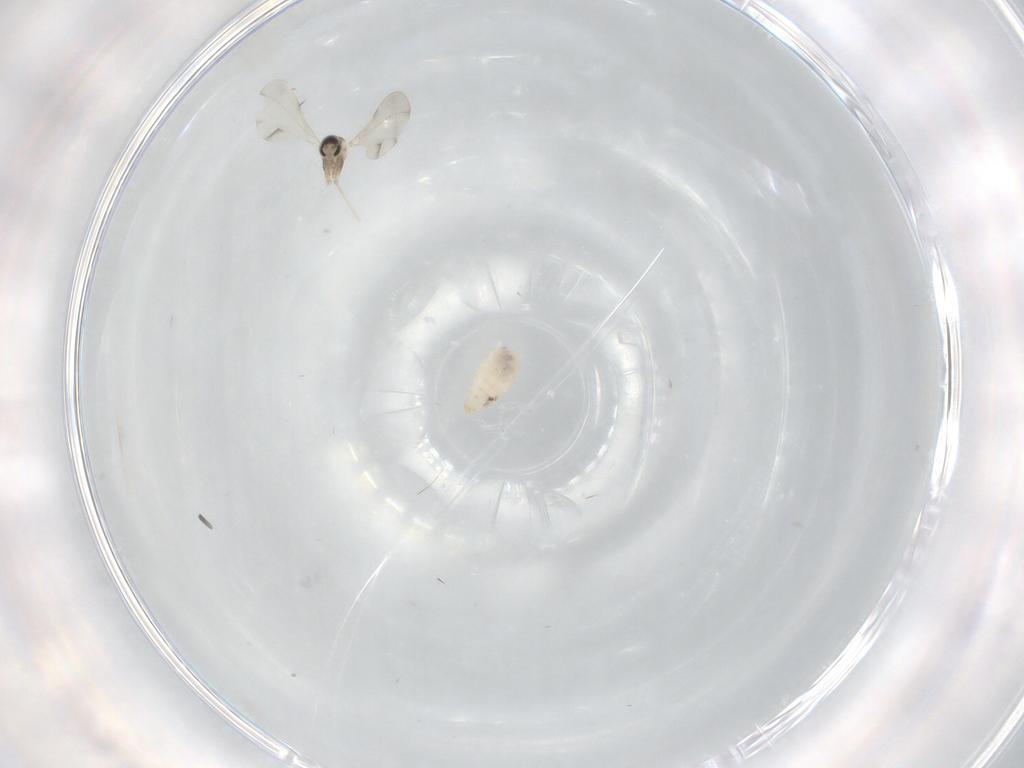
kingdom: Animalia
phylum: Arthropoda
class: Insecta
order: Diptera
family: Cecidomyiidae
